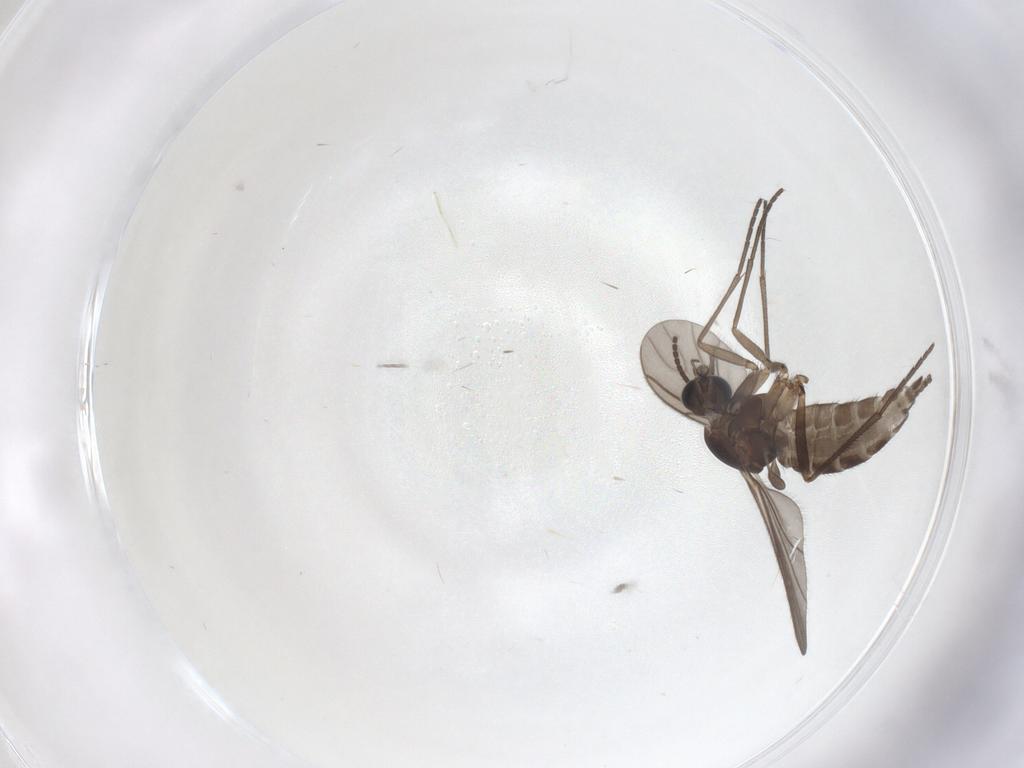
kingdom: Animalia
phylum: Arthropoda
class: Insecta
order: Diptera
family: Sciaridae
